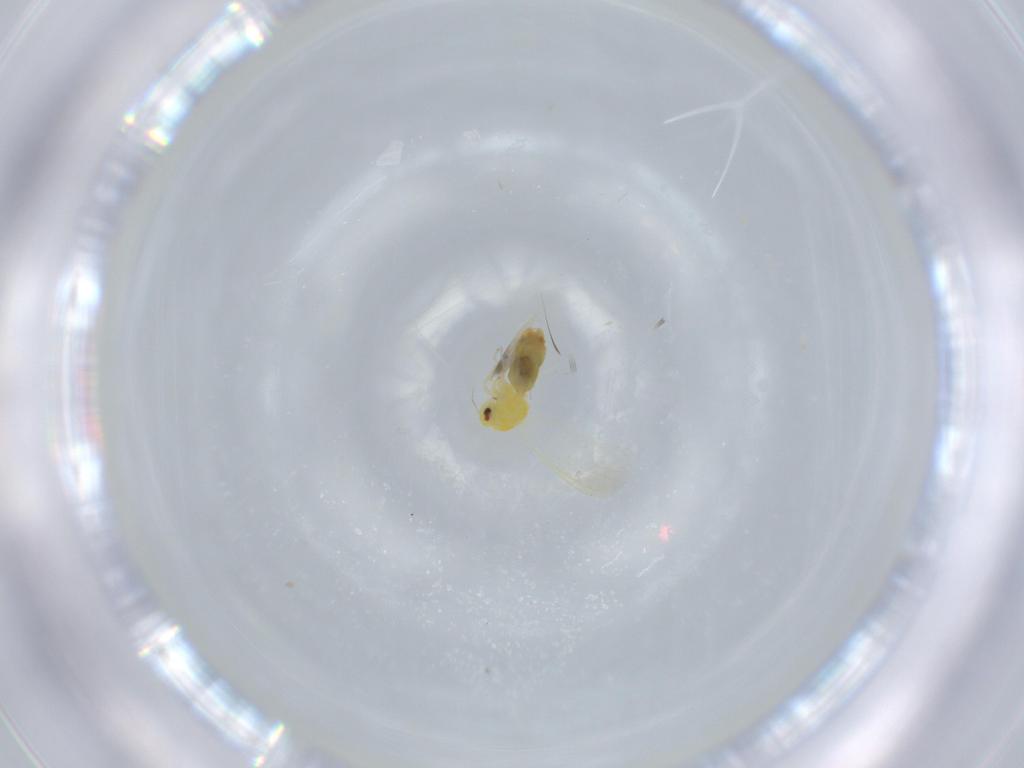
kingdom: Animalia
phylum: Arthropoda
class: Insecta
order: Hemiptera
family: Aleyrodidae
